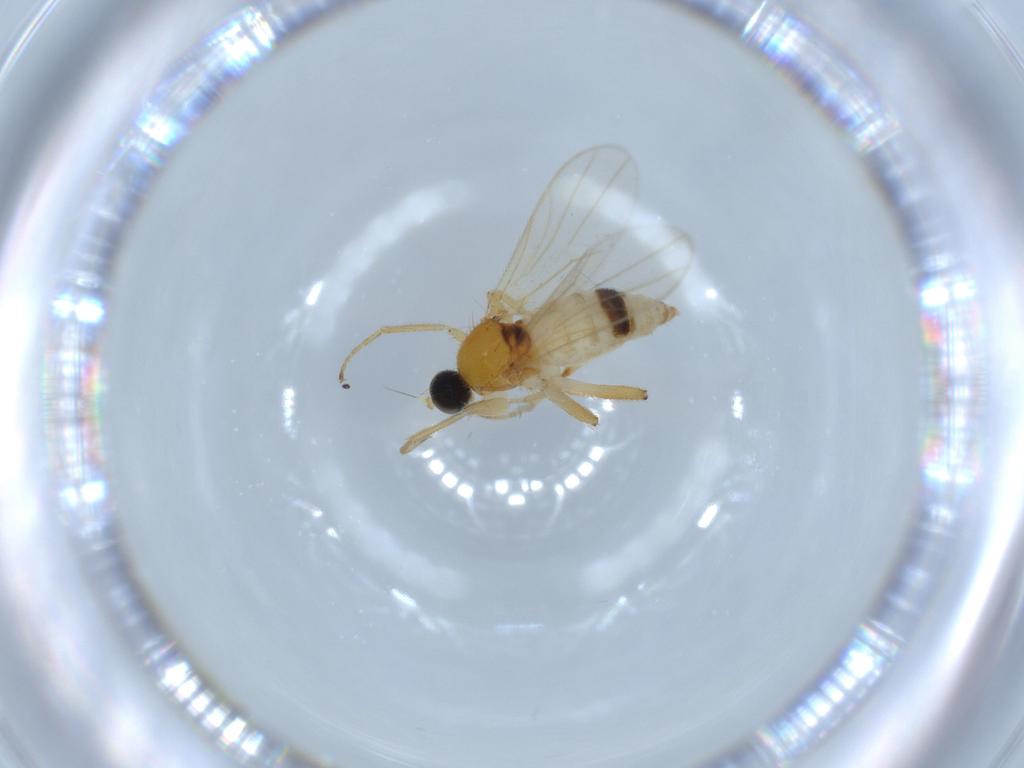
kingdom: Animalia
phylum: Arthropoda
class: Insecta
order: Diptera
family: Hybotidae
